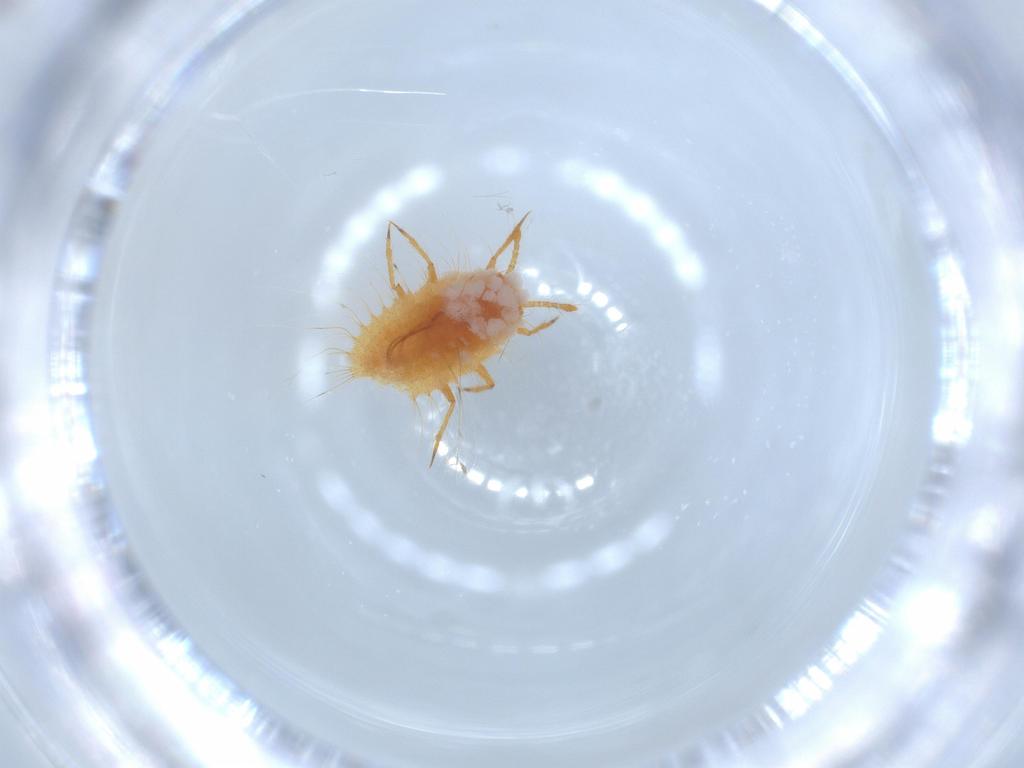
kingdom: Animalia
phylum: Arthropoda
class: Insecta
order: Hemiptera
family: Coccoidea_incertae_sedis
